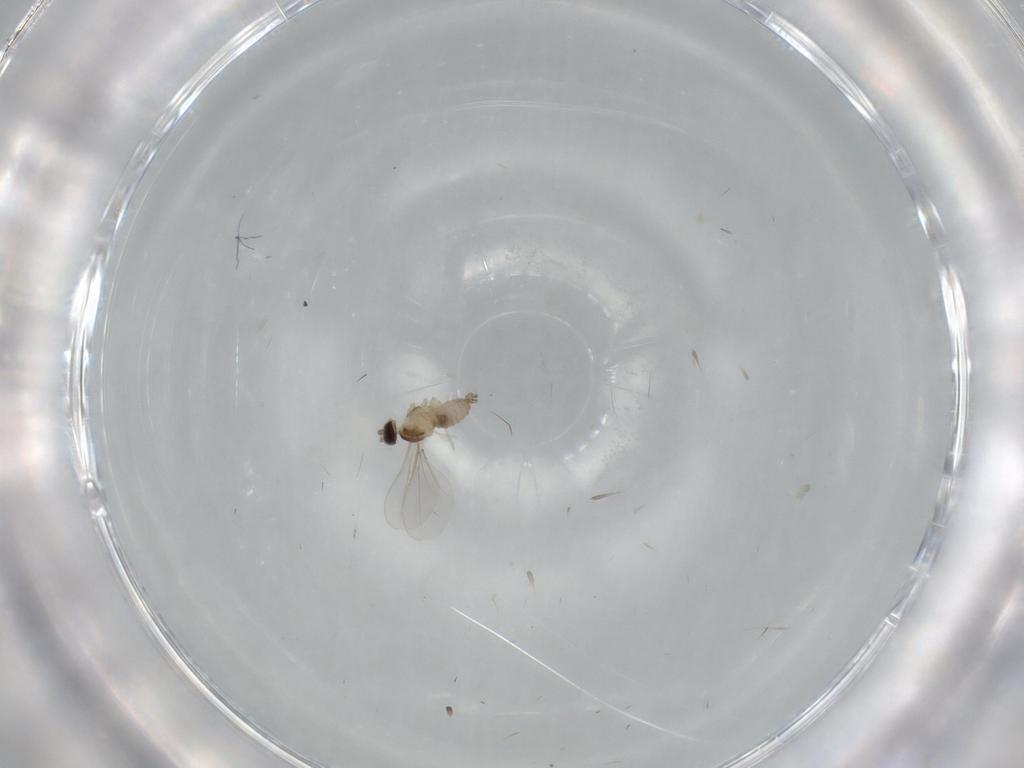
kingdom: Animalia
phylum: Arthropoda
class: Insecta
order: Diptera
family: Cecidomyiidae
